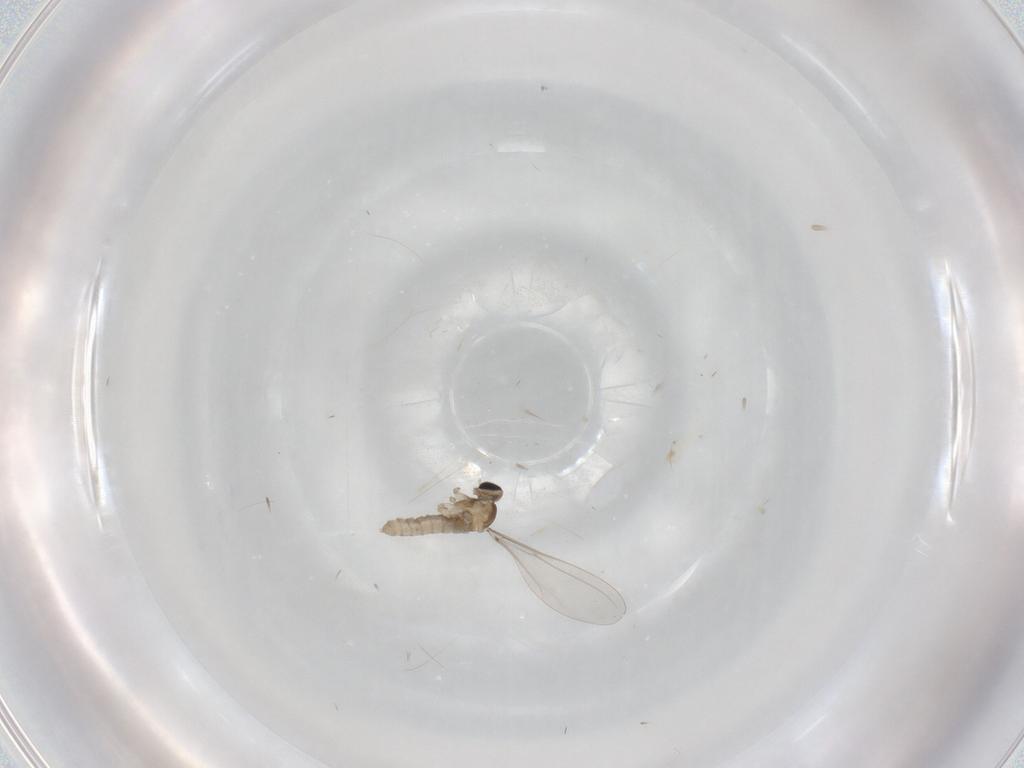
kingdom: Animalia
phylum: Arthropoda
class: Insecta
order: Diptera
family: Cecidomyiidae
